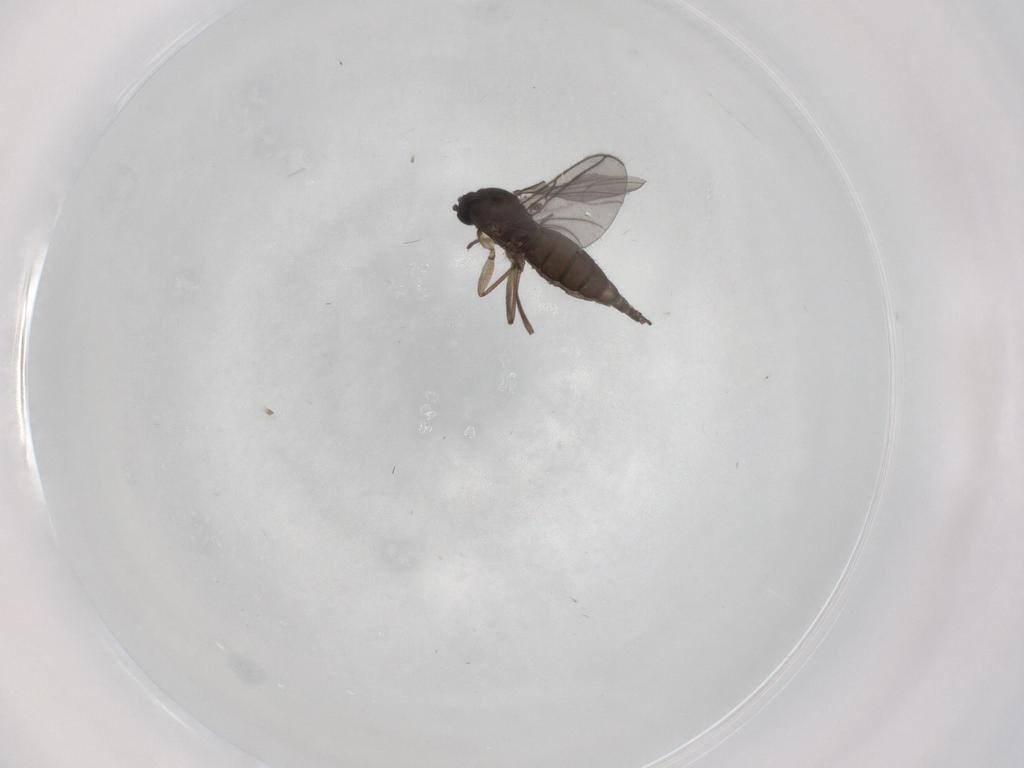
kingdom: Animalia
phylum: Arthropoda
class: Insecta
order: Diptera
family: Sciaridae
